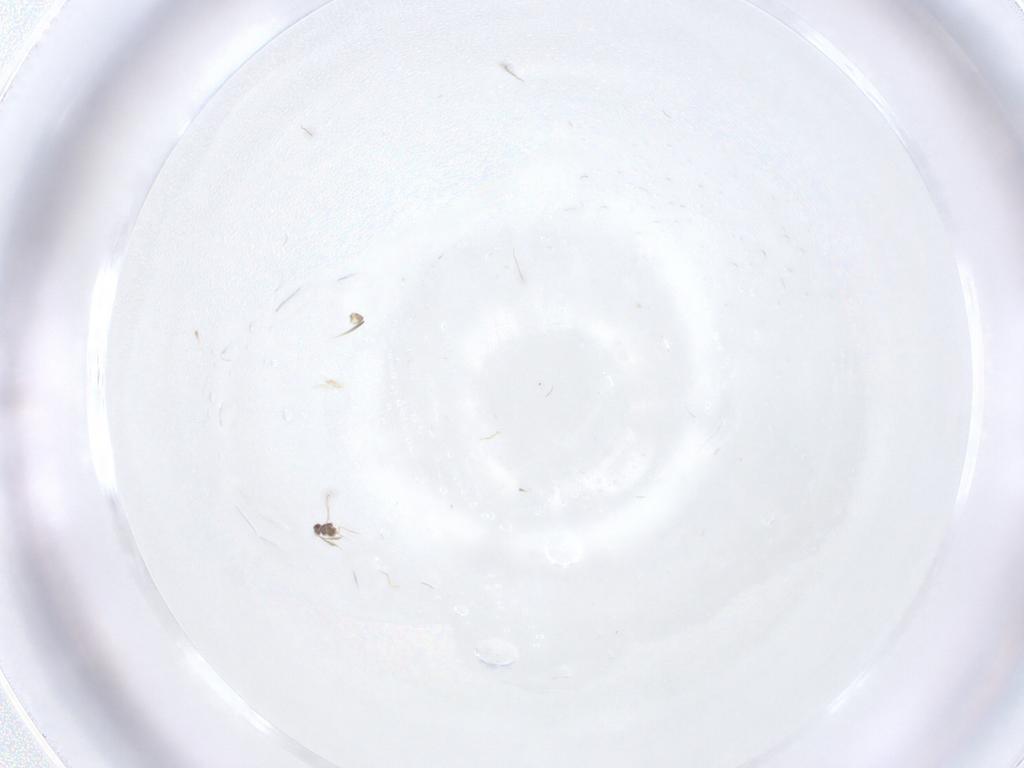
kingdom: Animalia
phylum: Arthropoda
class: Insecta
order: Hymenoptera
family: Mymaridae
